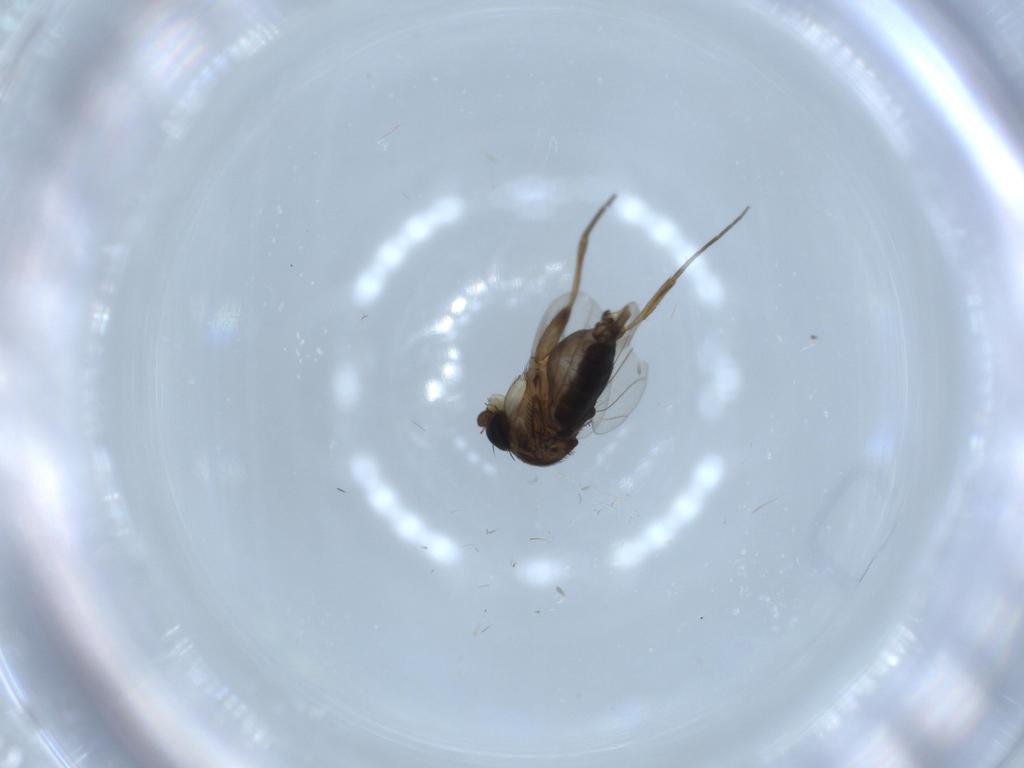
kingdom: Animalia
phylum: Arthropoda
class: Insecta
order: Diptera
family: Phoridae
